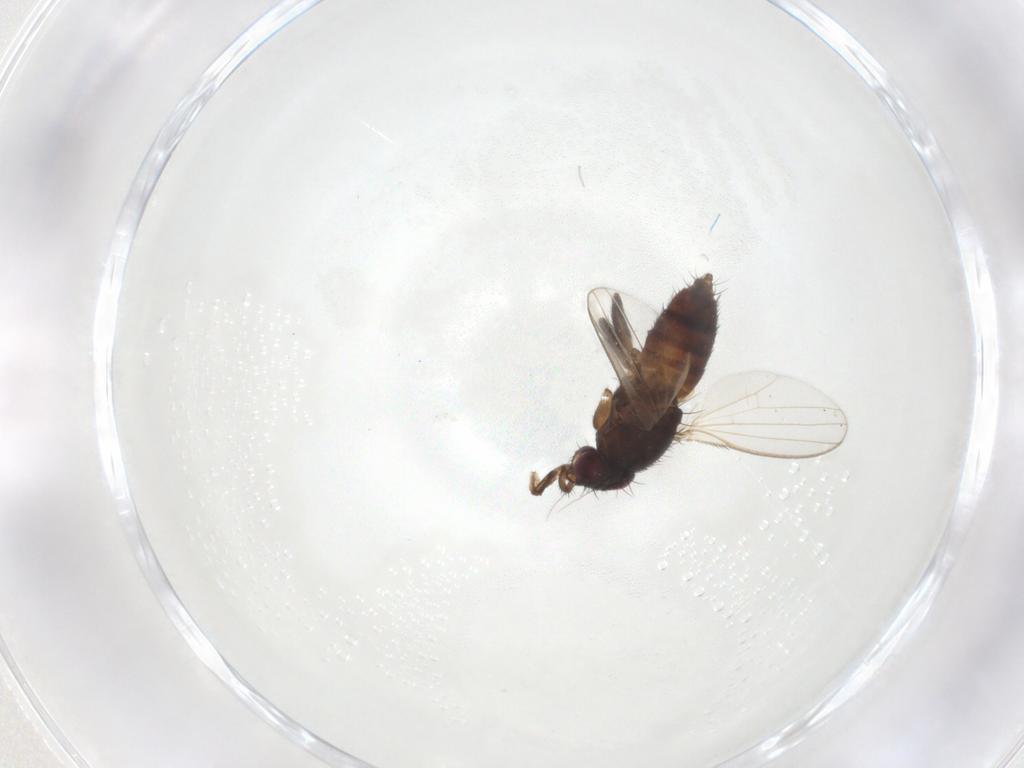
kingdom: Animalia
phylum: Arthropoda
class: Insecta
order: Diptera
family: Milichiidae
